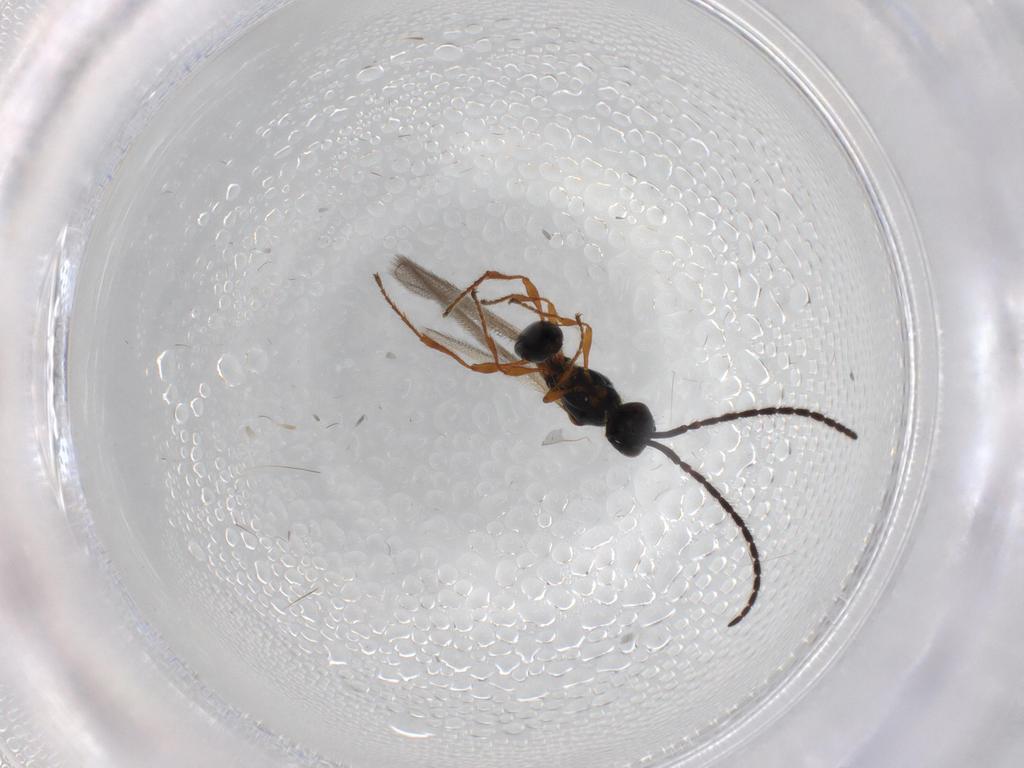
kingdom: Animalia
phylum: Arthropoda
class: Insecta
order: Hymenoptera
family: Diapriidae
